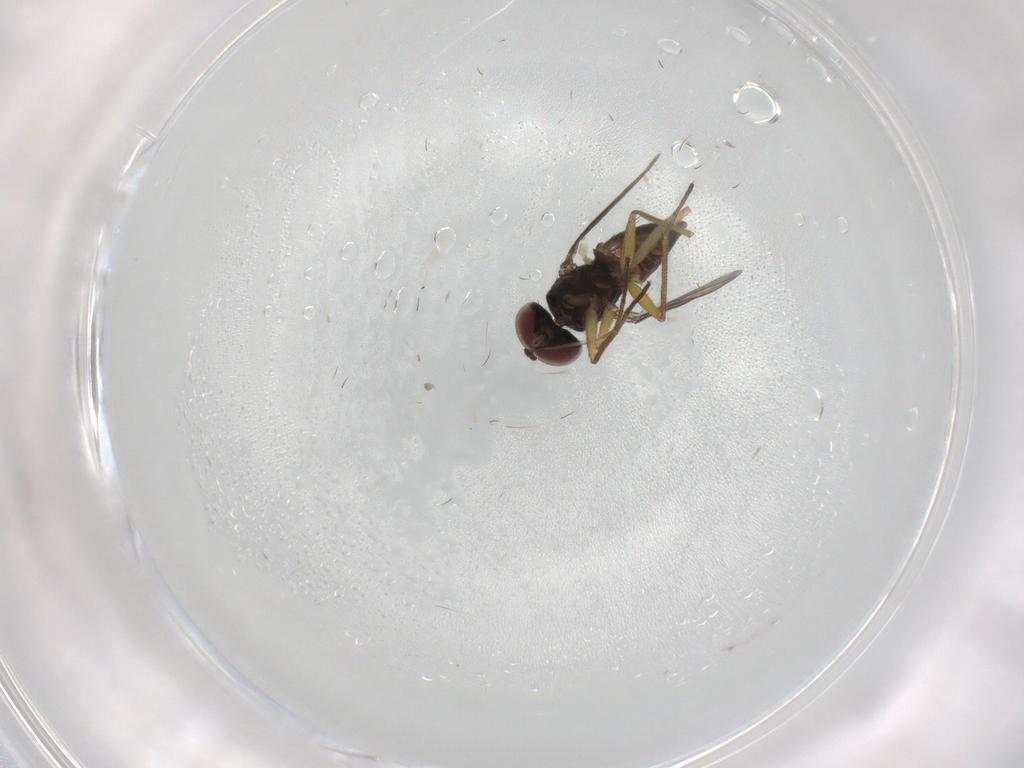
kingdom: Animalia
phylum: Arthropoda
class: Insecta
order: Diptera
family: Dolichopodidae
